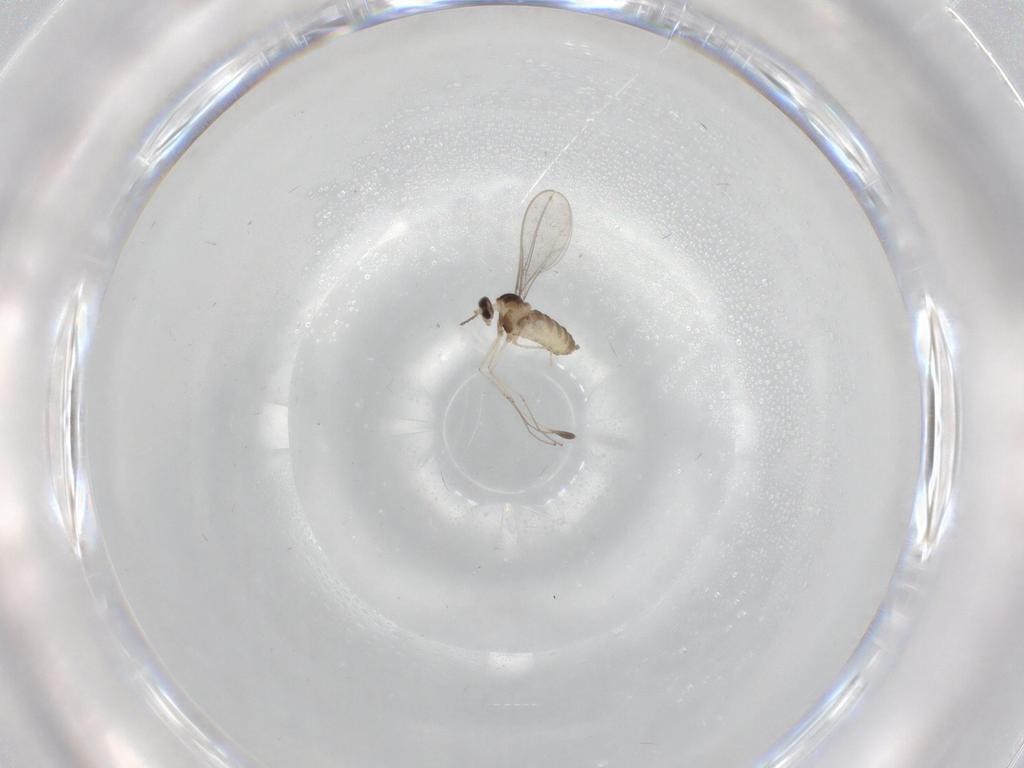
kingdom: Animalia
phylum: Arthropoda
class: Insecta
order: Diptera
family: Cecidomyiidae
